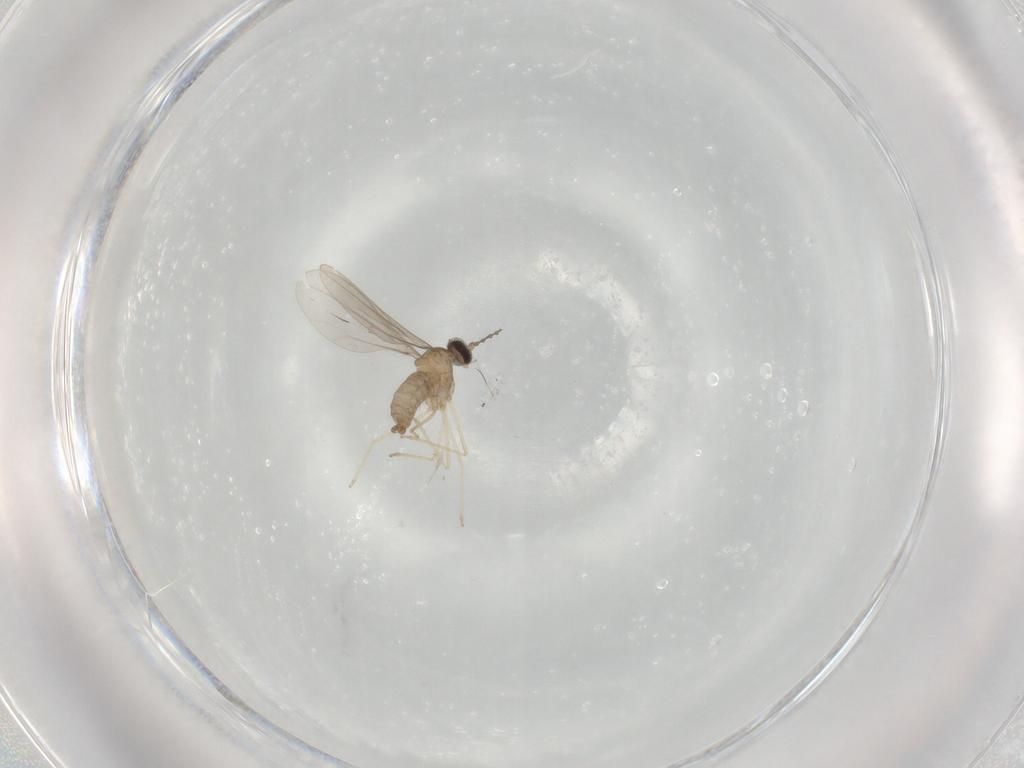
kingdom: Animalia
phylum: Arthropoda
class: Insecta
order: Diptera
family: Cecidomyiidae
